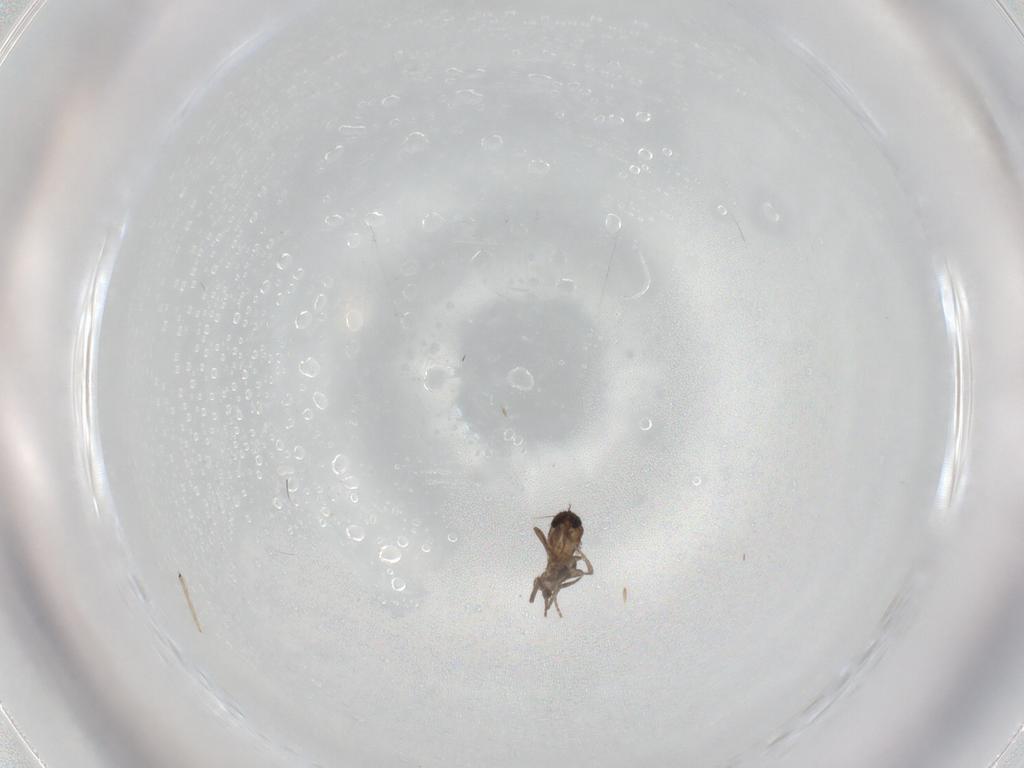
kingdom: Animalia
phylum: Arthropoda
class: Insecta
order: Diptera
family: Chironomidae
